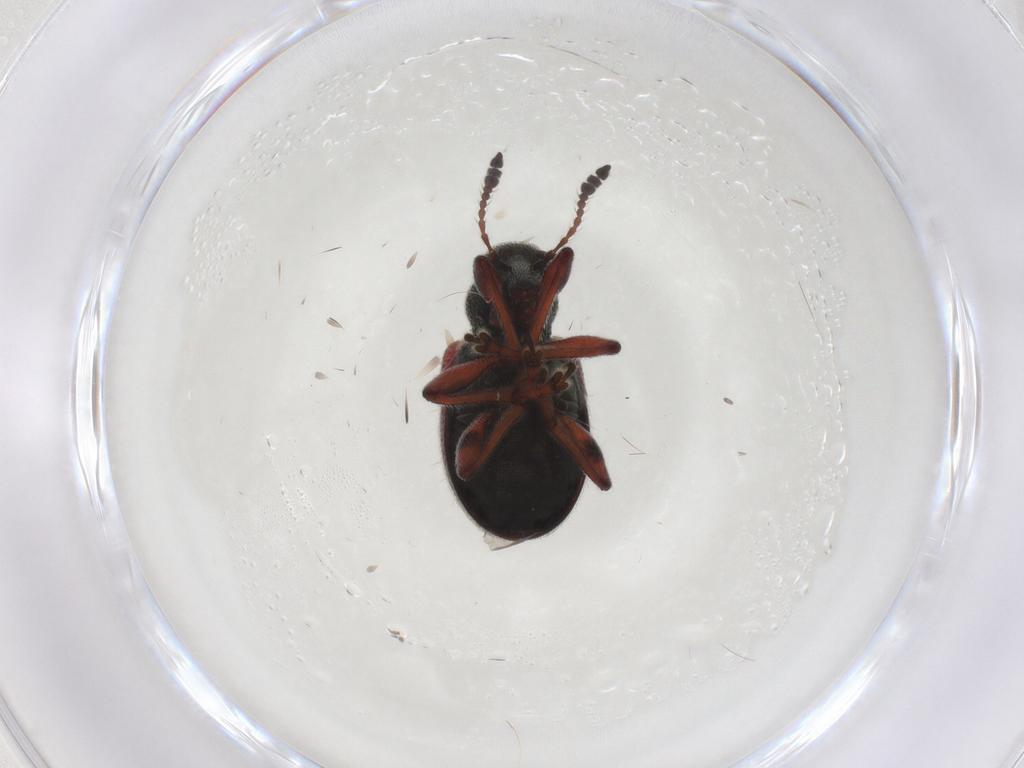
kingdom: Animalia
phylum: Arthropoda
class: Insecta
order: Coleoptera
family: Attelabidae
